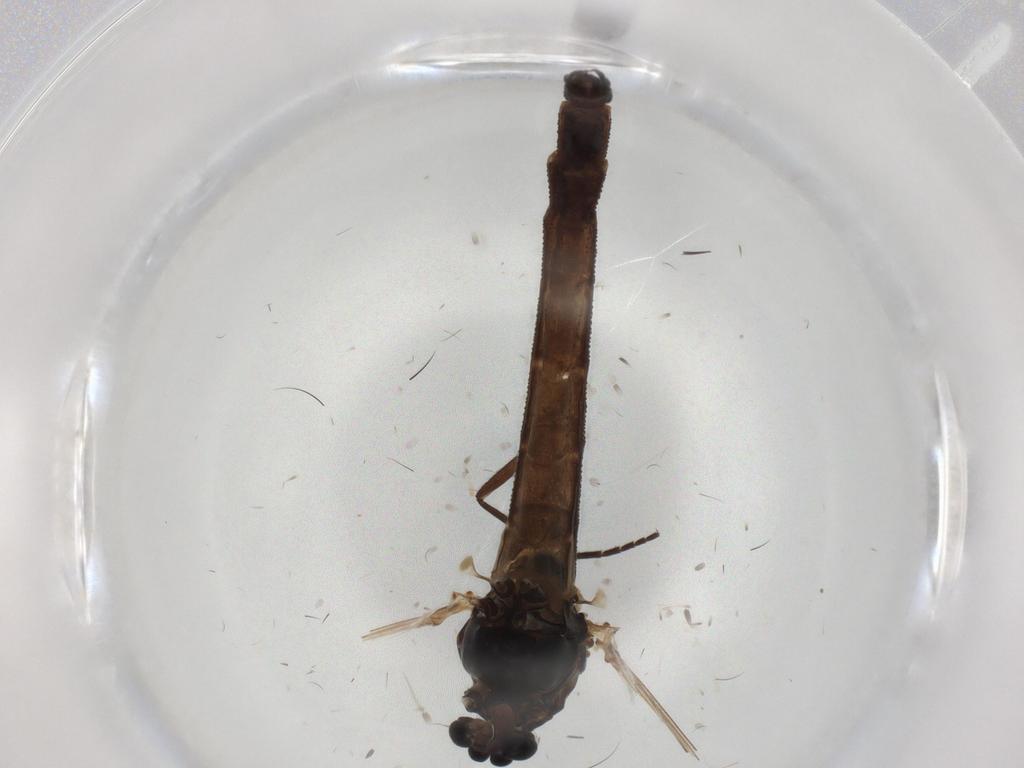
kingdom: Animalia
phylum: Arthropoda
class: Insecta
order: Diptera
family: Chironomidae
